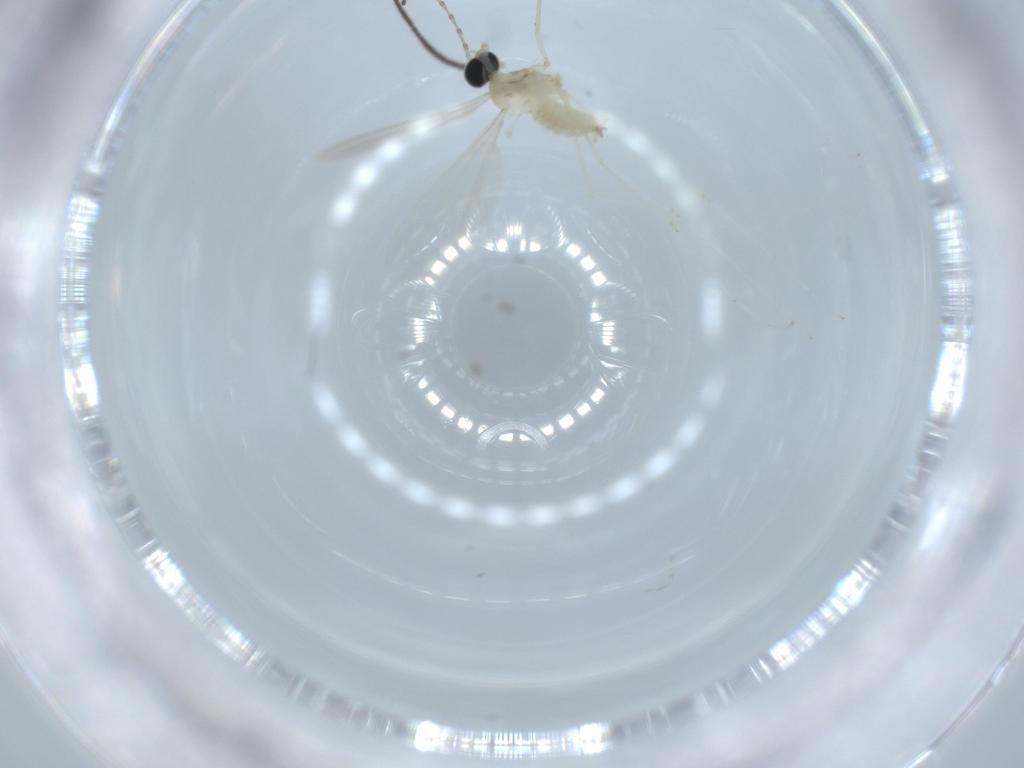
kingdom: Animalia
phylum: Arthropoda
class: Insecta
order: Diptera
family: Cecidomyiidae
